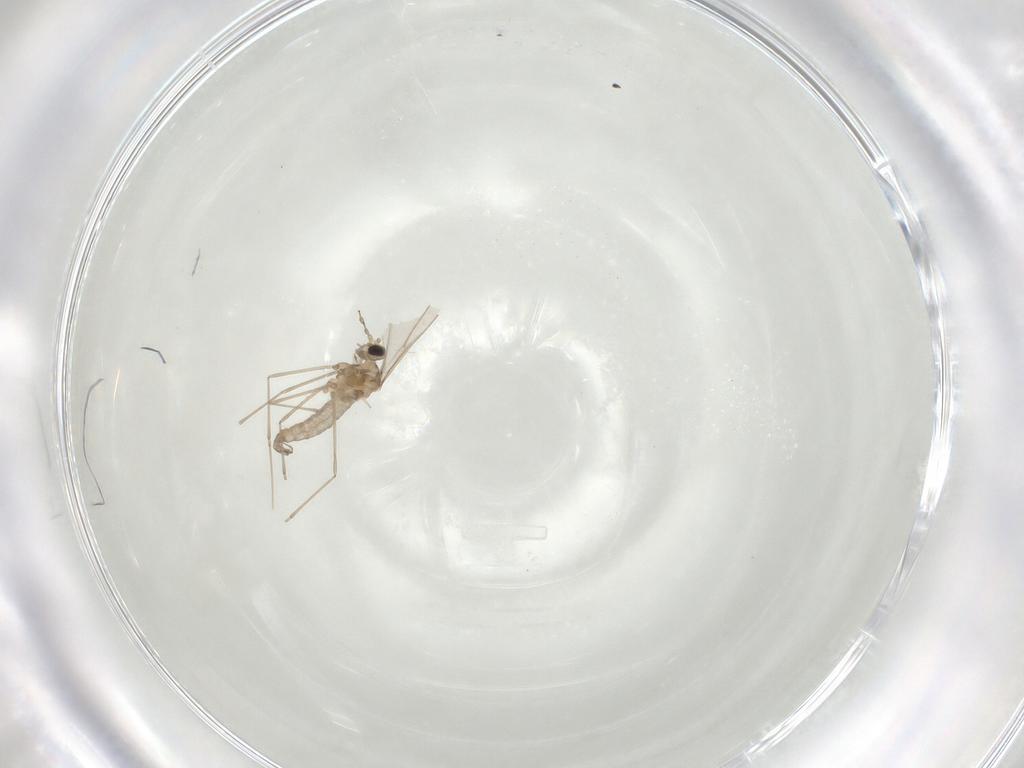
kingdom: Animalia
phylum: Arthropoda
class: Insecta
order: Diptera
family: Cecidomyiidae
